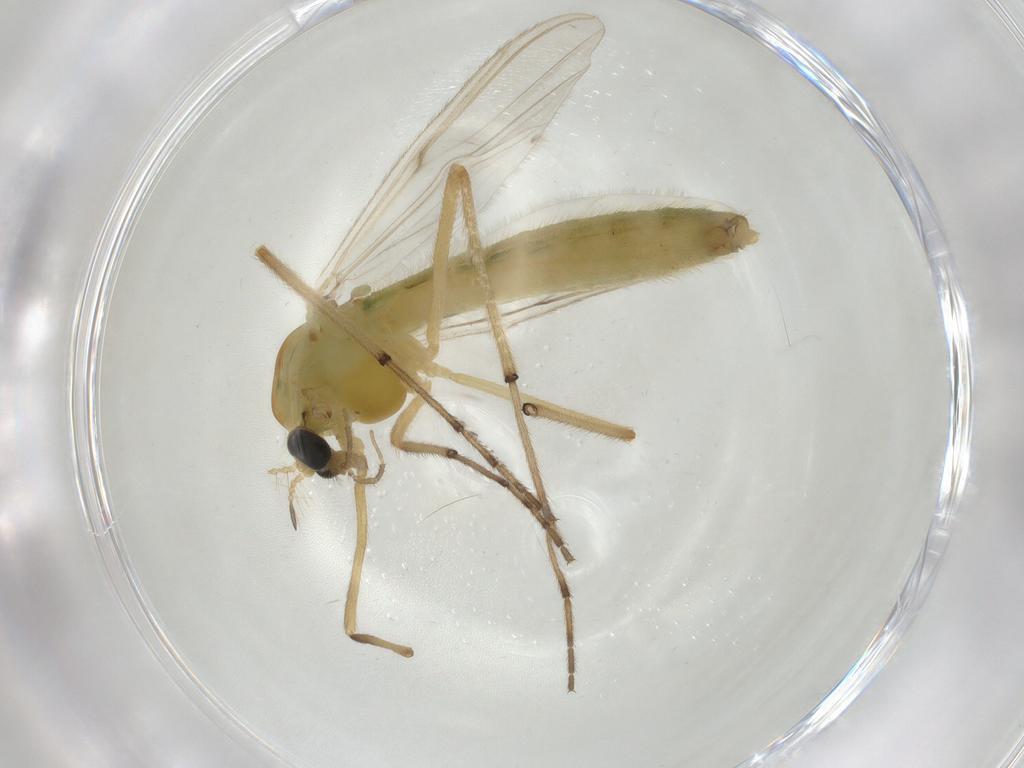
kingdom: Animalia
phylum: Arthropoda
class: Insecta
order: Diptera
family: Chironomidae
